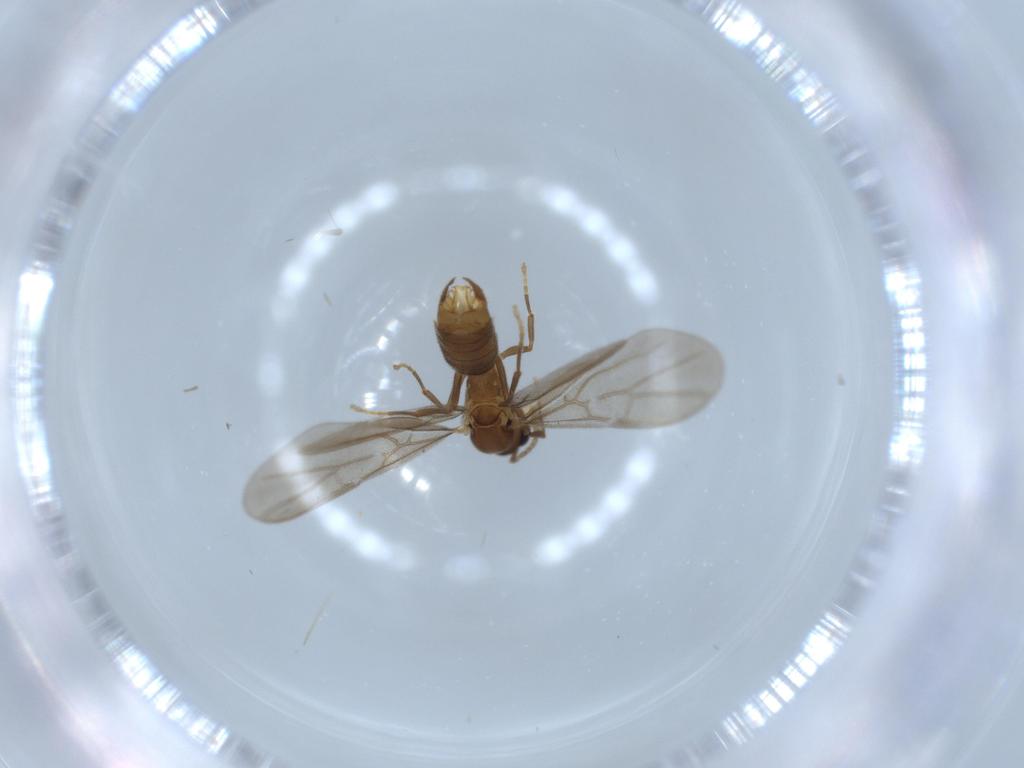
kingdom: Animalia
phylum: Arthropoda
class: Insecta
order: Hymenoptera
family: Formicidae
